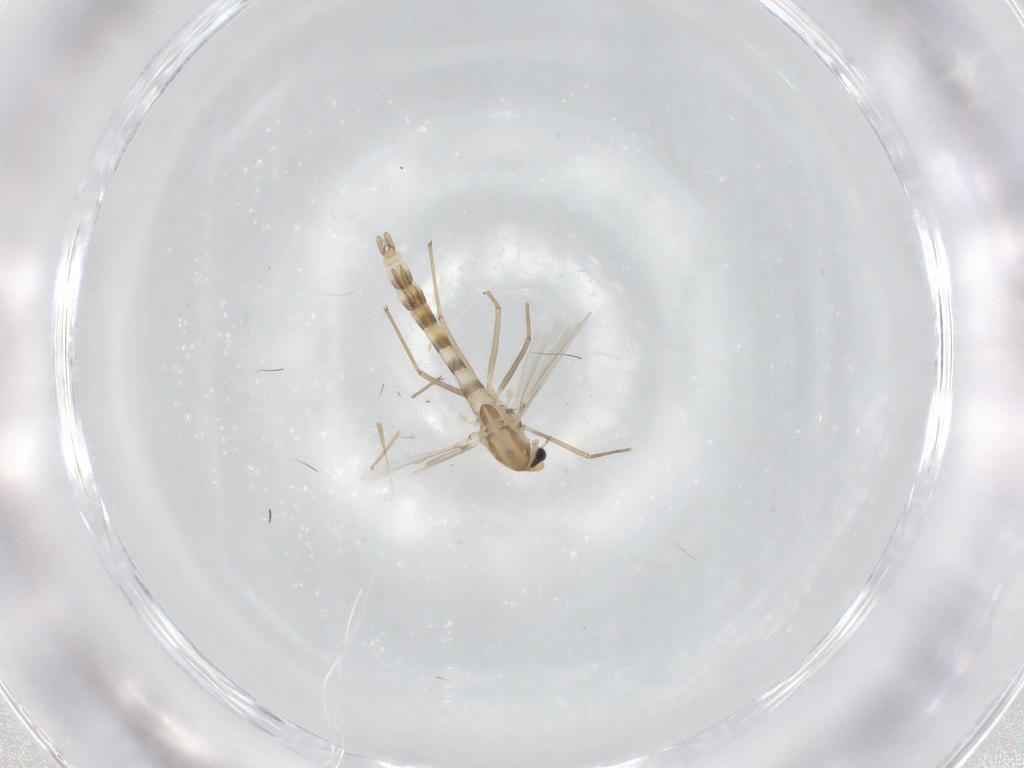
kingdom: Animalia
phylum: Arthropoda
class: Insecta
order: Diptera
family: Chironomidae
